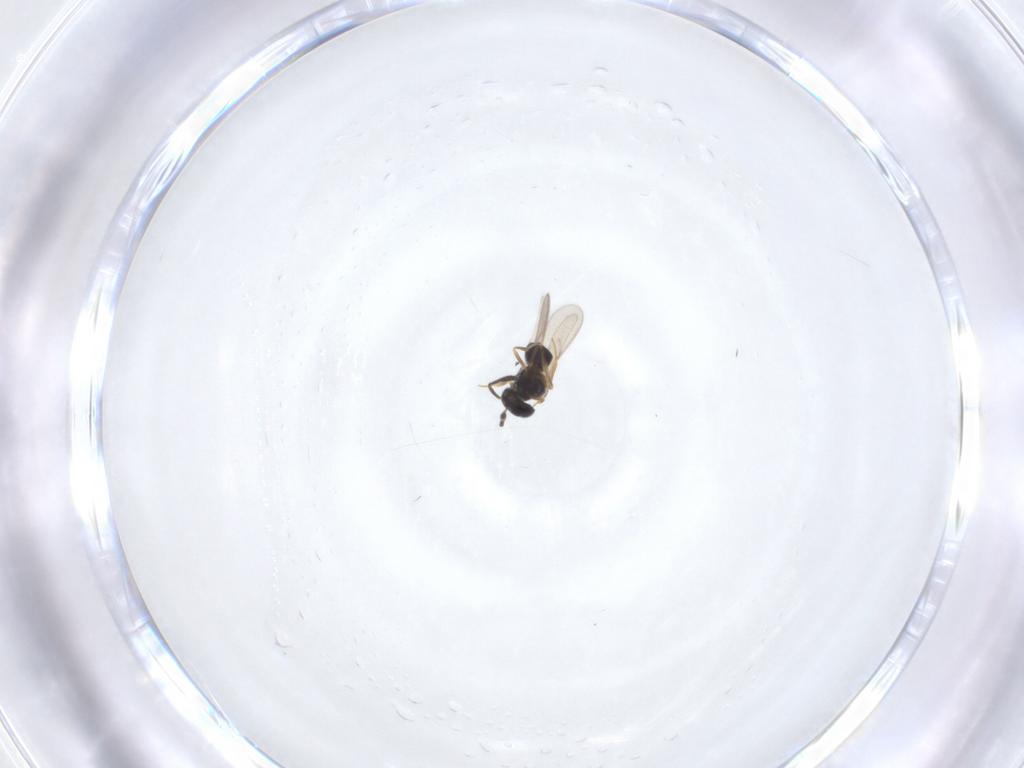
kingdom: Animalia
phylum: Arthropoda
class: Insecta
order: Hymenoptera
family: Scelionidae
